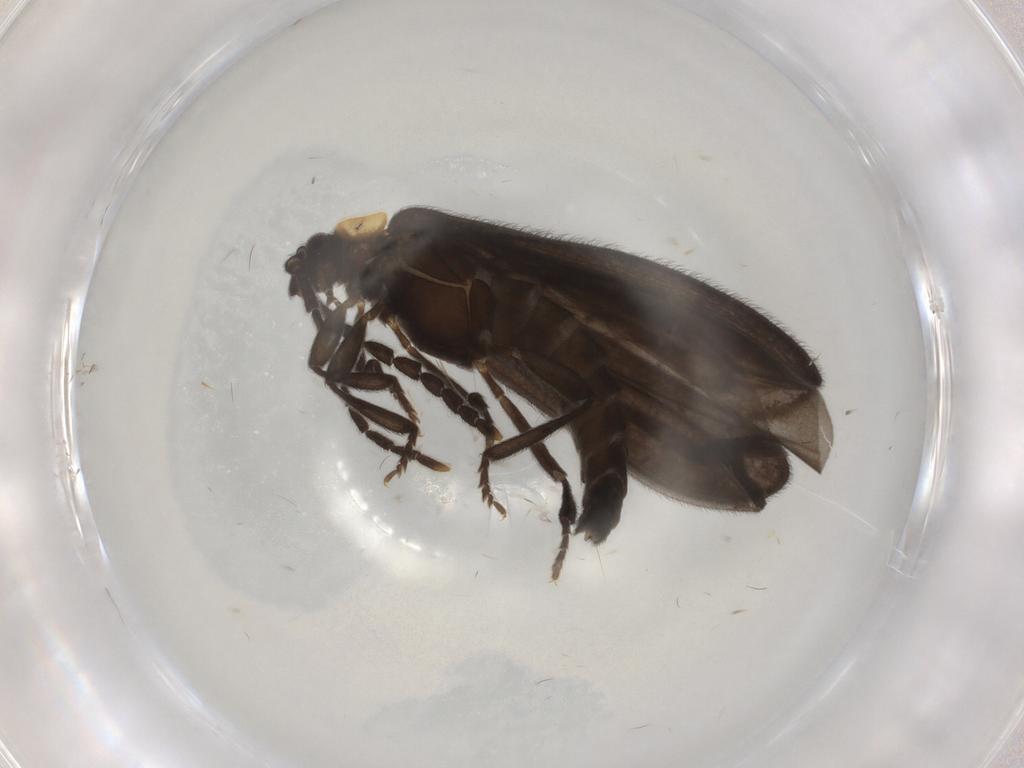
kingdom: Animalia
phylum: Arthropoda
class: Insecta
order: Coleoptera
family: Lycidae
